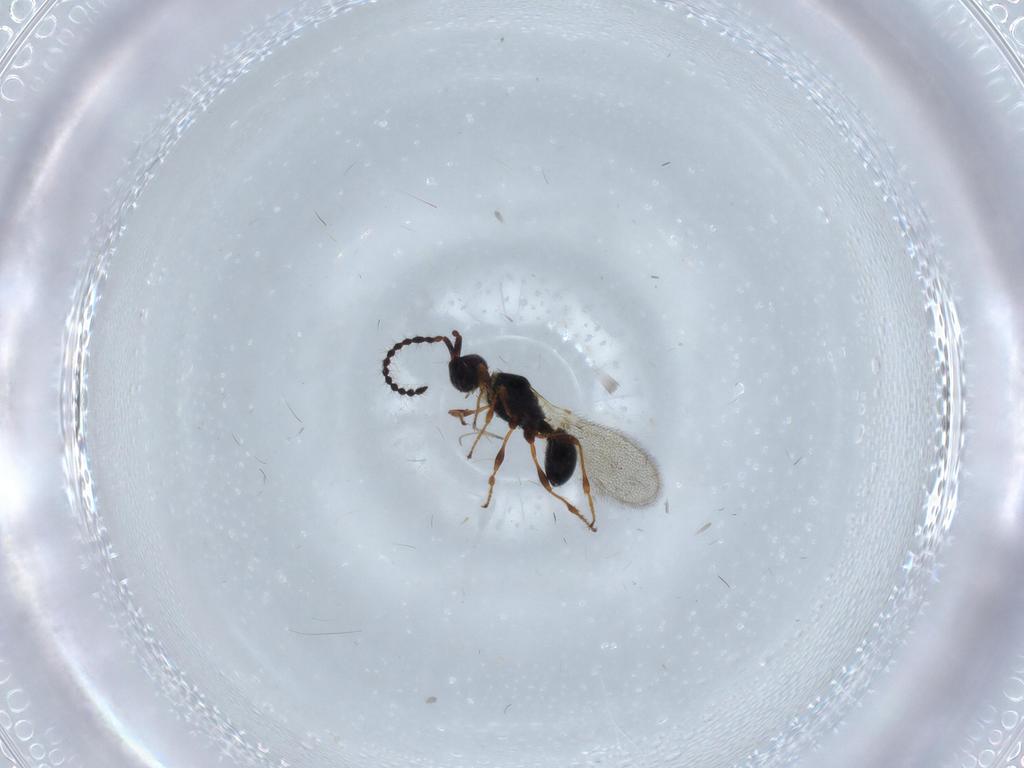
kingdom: Animalia
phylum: Arthropoda
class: Insecta
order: Hymenoptera
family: Diapriidae
